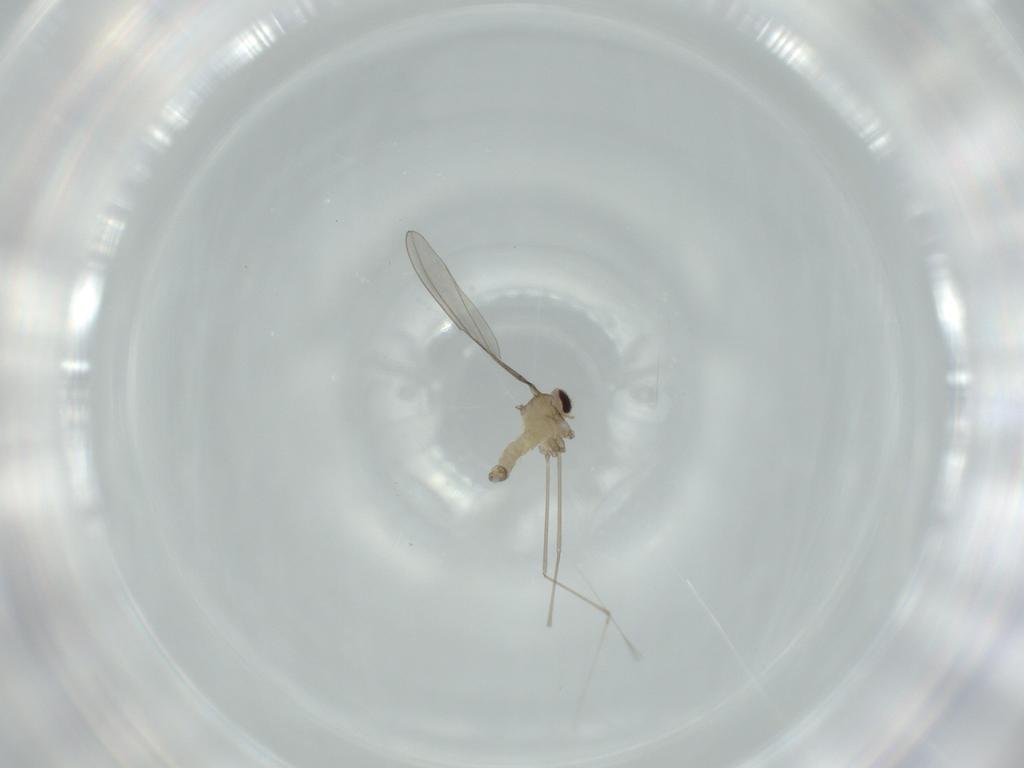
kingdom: Animalia
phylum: Arthropoda
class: Insecta
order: Diptera
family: Cecidomyiidae
